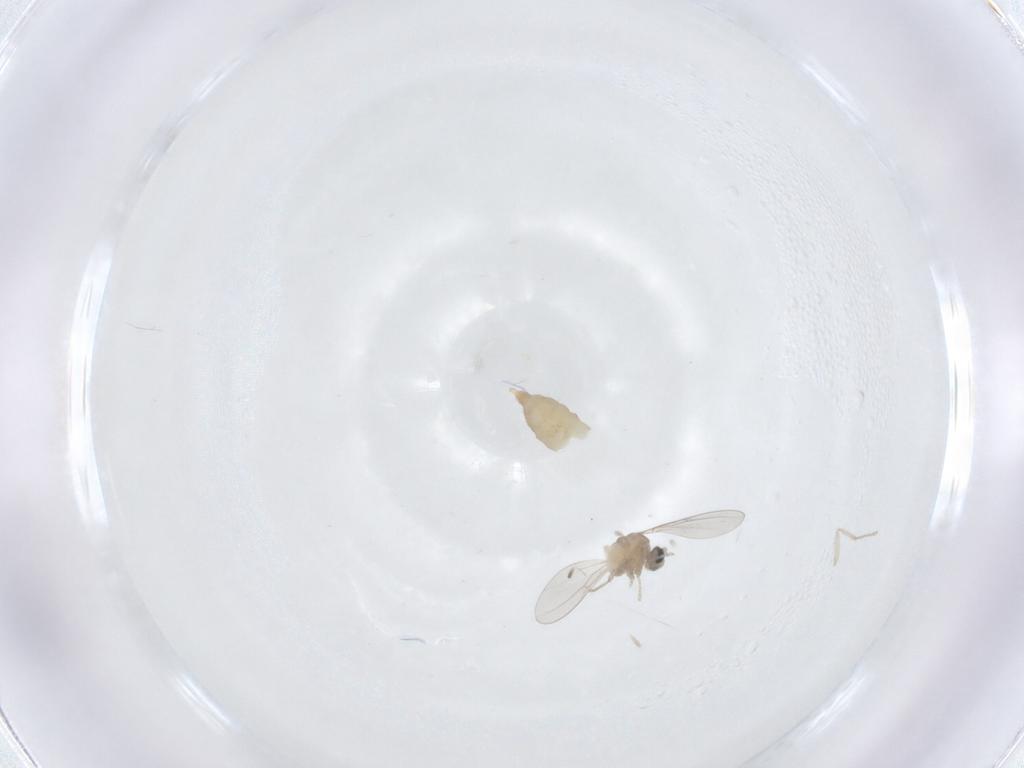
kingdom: Animalia
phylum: Arthropoda
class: Insecta
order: Diptera
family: Cecidomyiidae
